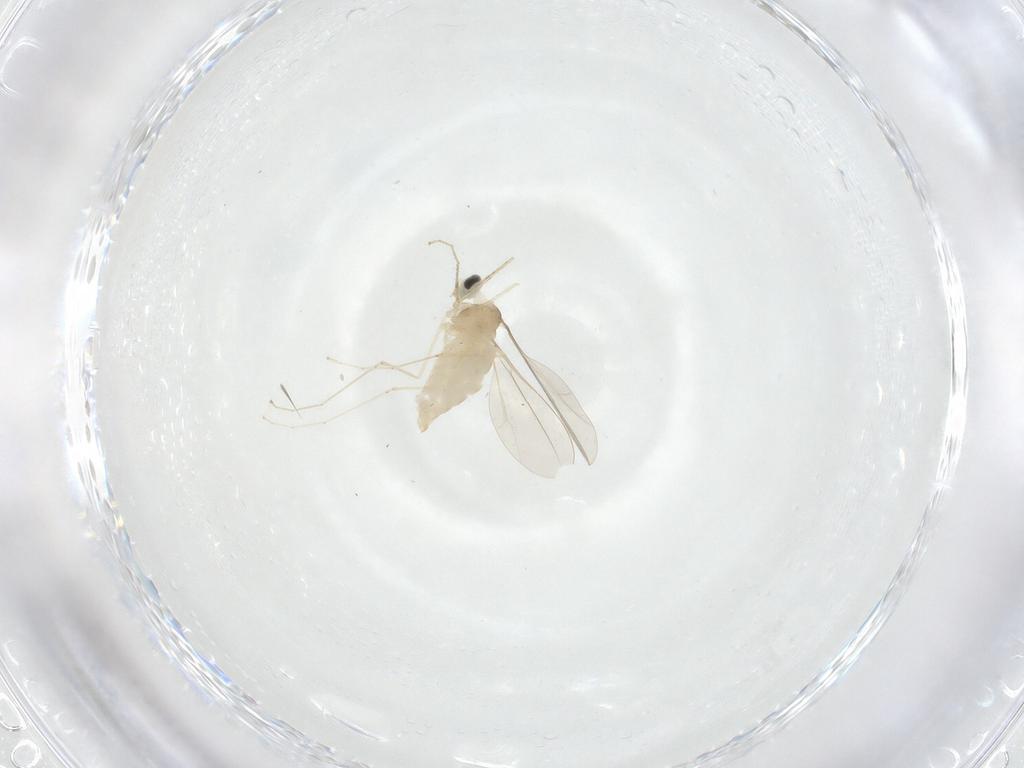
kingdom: Animalia
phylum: Arthropoda
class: Insecta
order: Diptera
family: Cecidomyiidae
